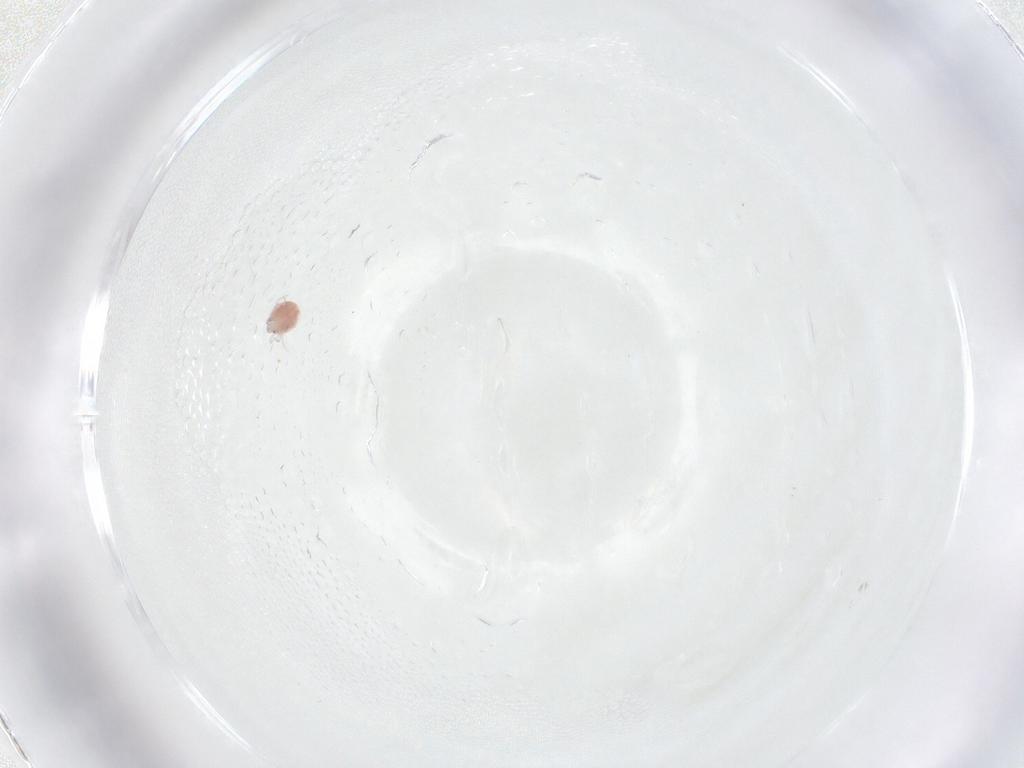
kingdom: Animalia
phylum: Arthropoda
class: Arachnida
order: Trombidiformes
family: Pionidae
